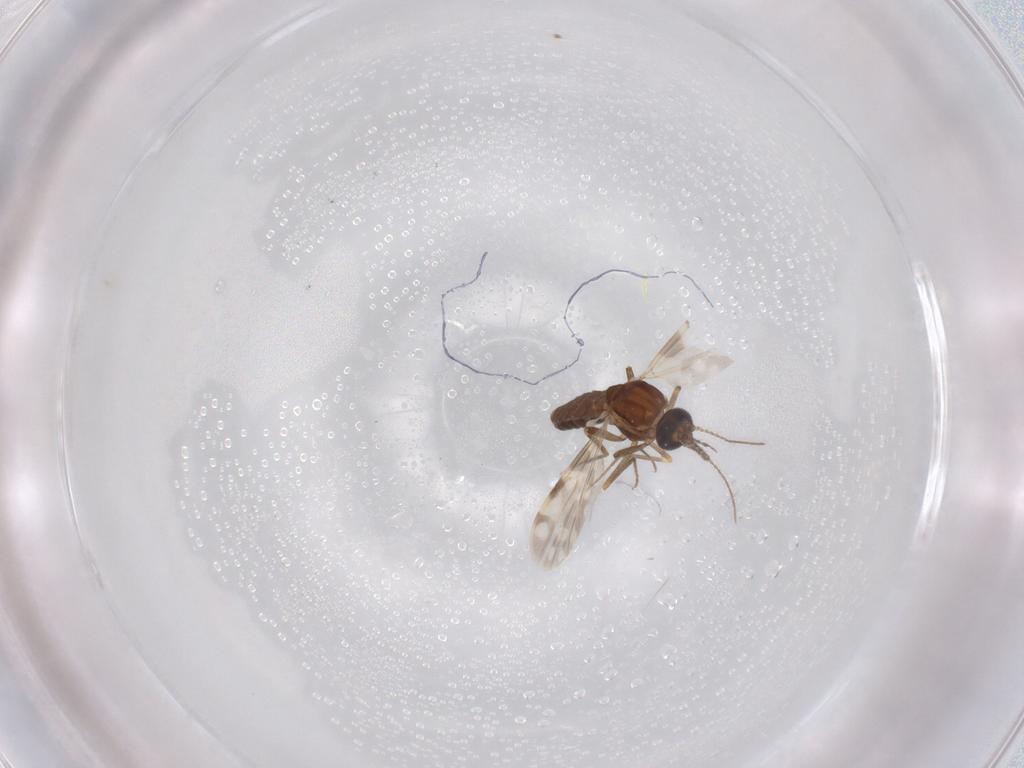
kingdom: Animalia
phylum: Arthropoda
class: Insecta
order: Diptera
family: Ceratopogonidae
